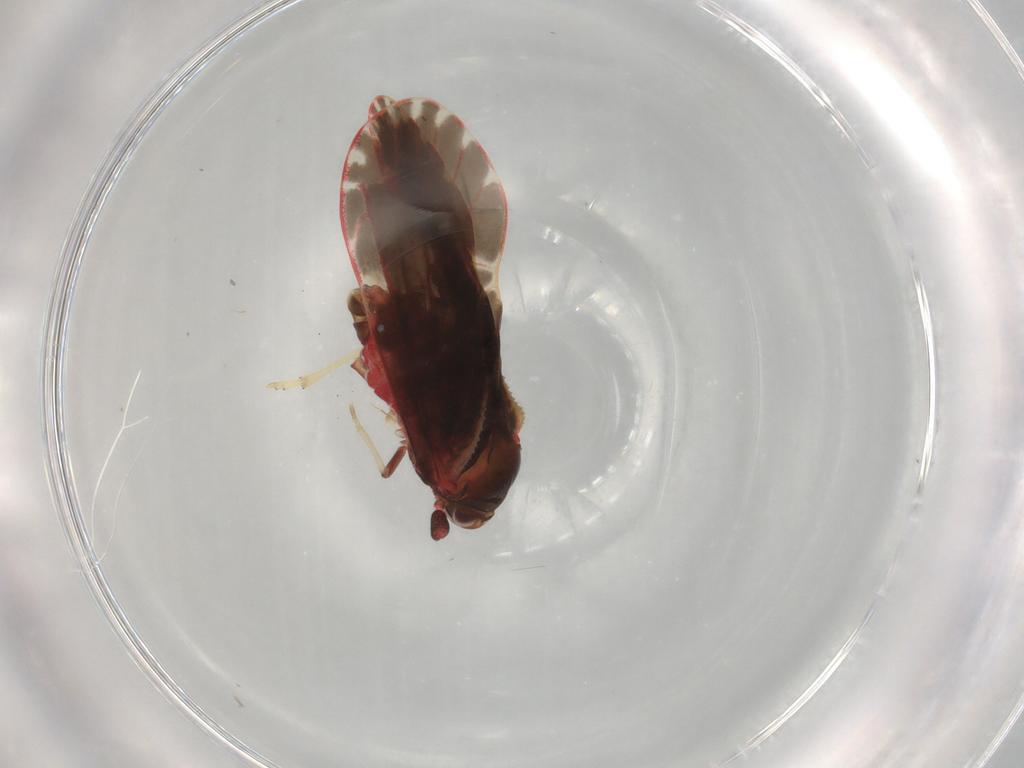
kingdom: Animalia
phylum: Arthropoda
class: Insecta
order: Hemiptera
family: Derbidae
